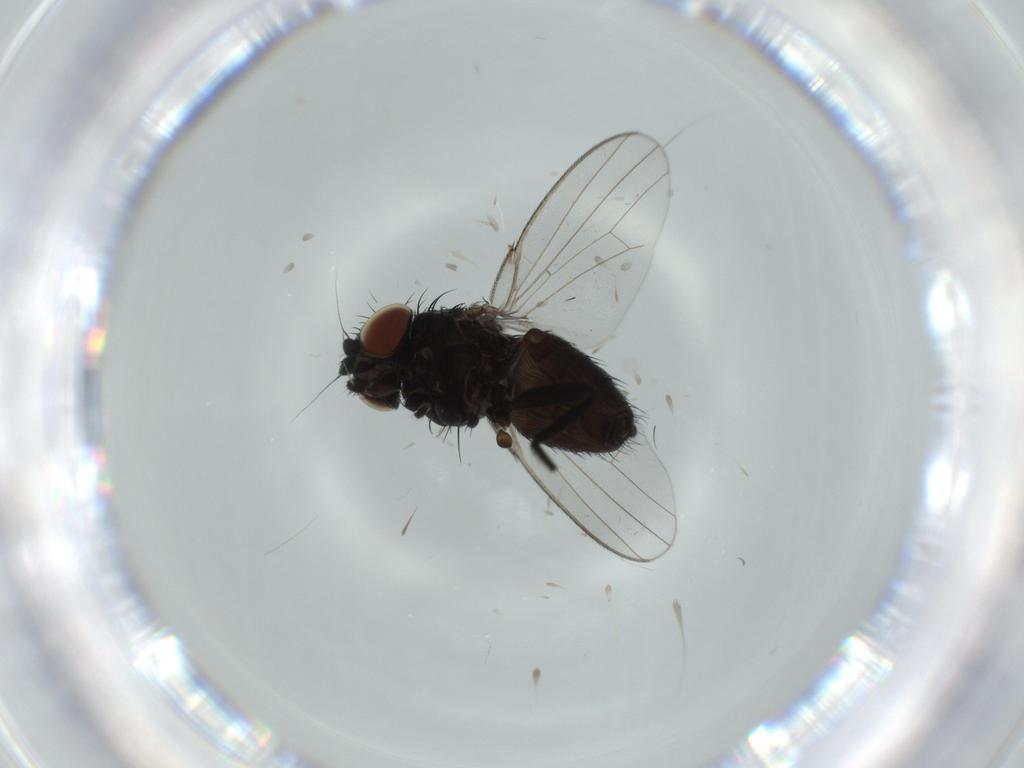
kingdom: Animalia
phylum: Arthropoda
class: Insecta
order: Diptera
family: Milichiidae
